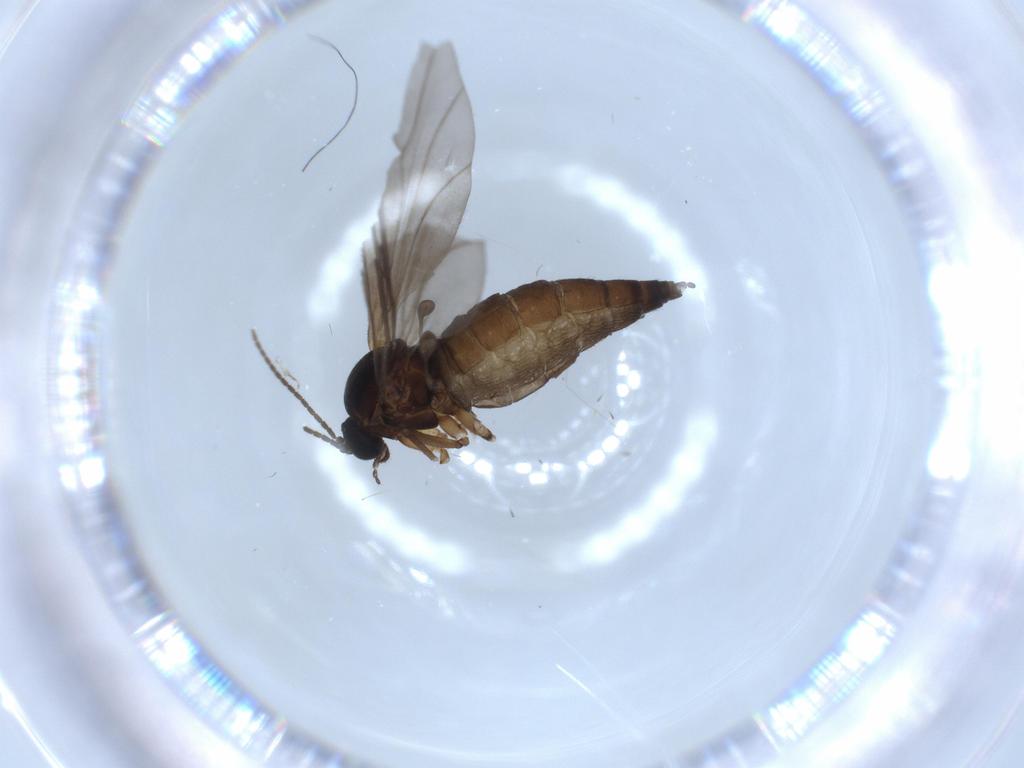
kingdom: Animalia
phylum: Arthropoda
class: Insecta
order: Diptera
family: Sciaridae
